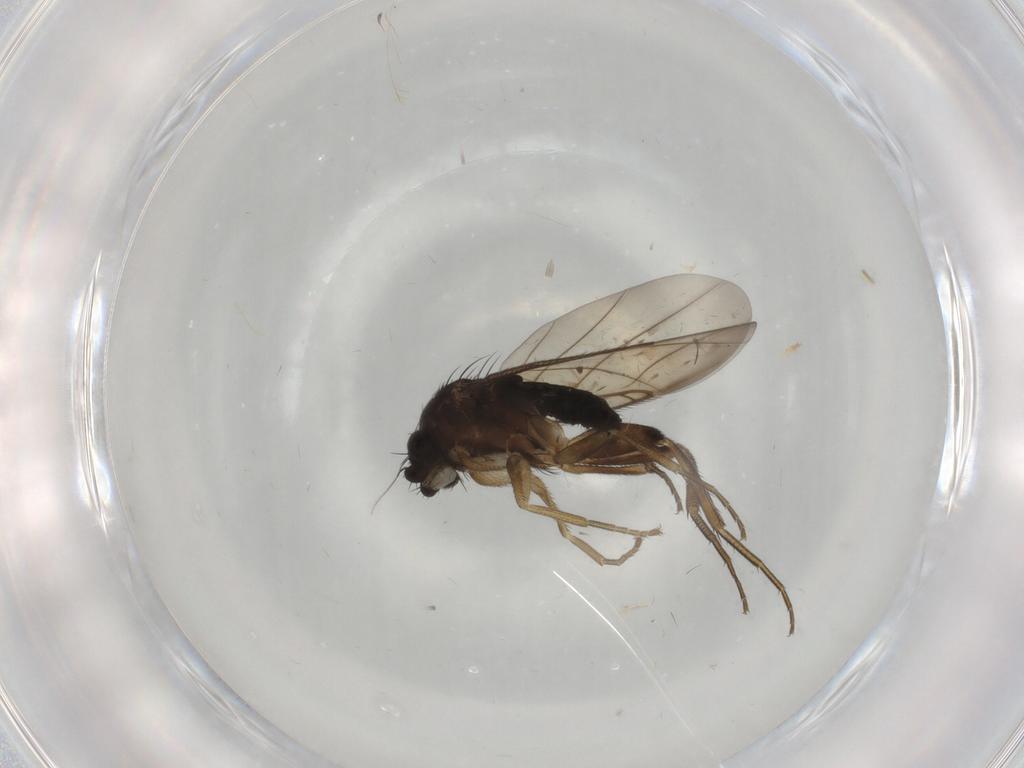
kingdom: Animalia
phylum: Arthropoda
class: Insecta
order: Diptera
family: Phoridae
